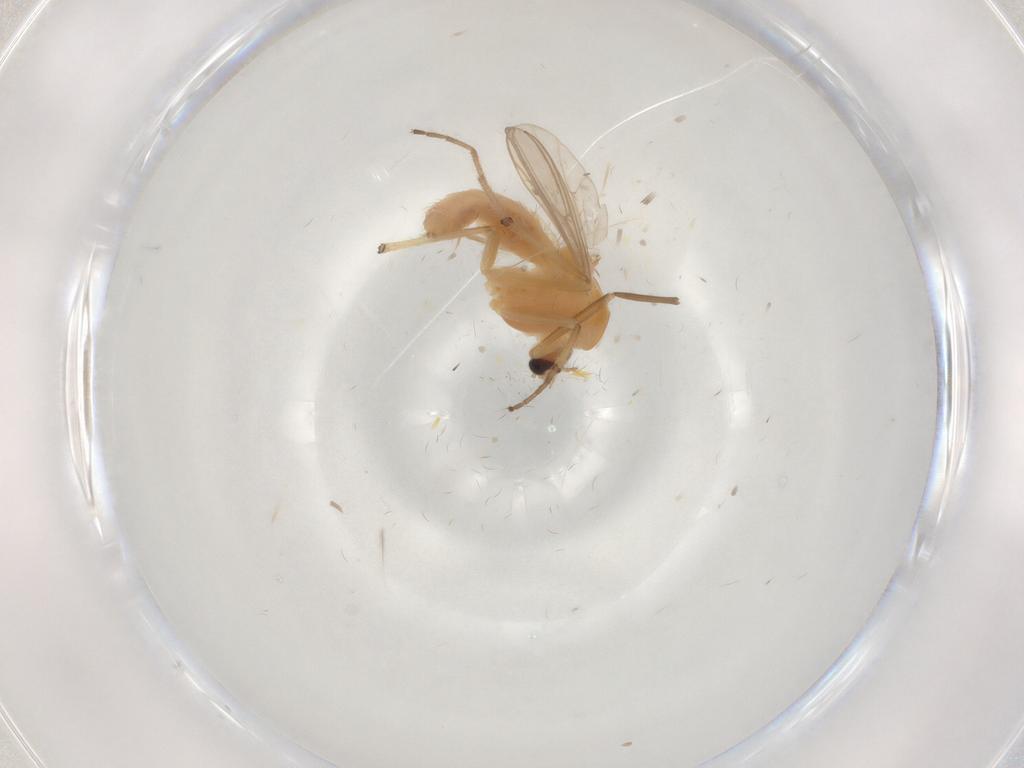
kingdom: Animalia
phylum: Arthropoda
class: Insecta
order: Diptera
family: Chironomidae
